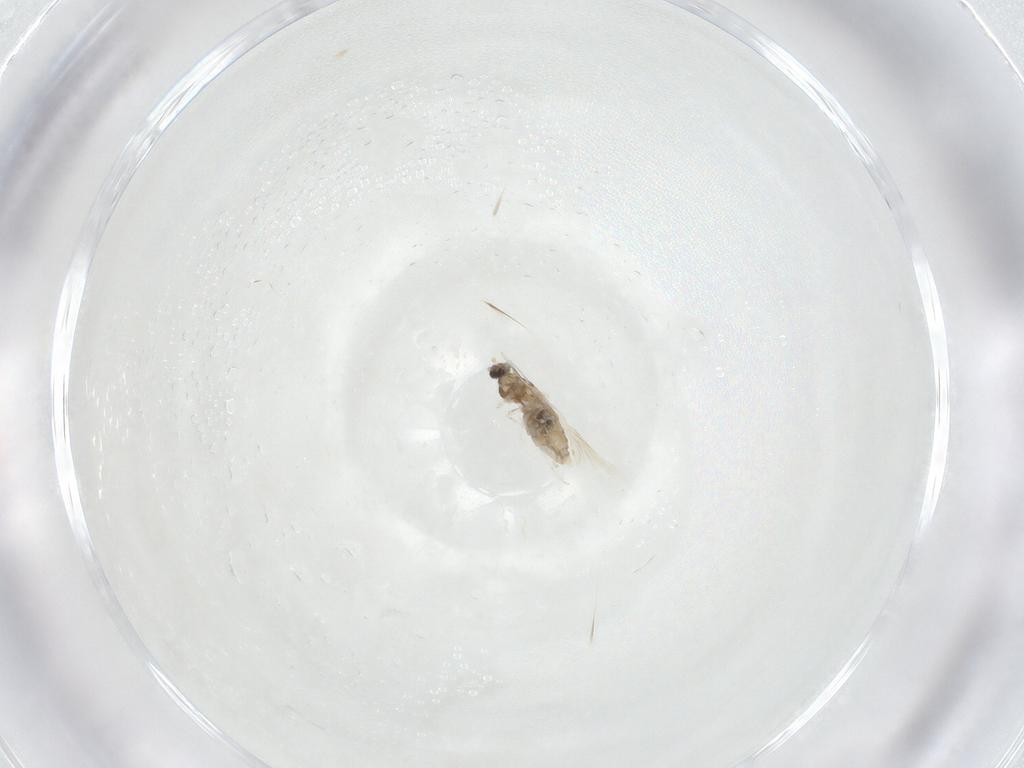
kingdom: Animalia
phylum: Arthropoda
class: Insecta
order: Diptera
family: Cecidomyiidae
